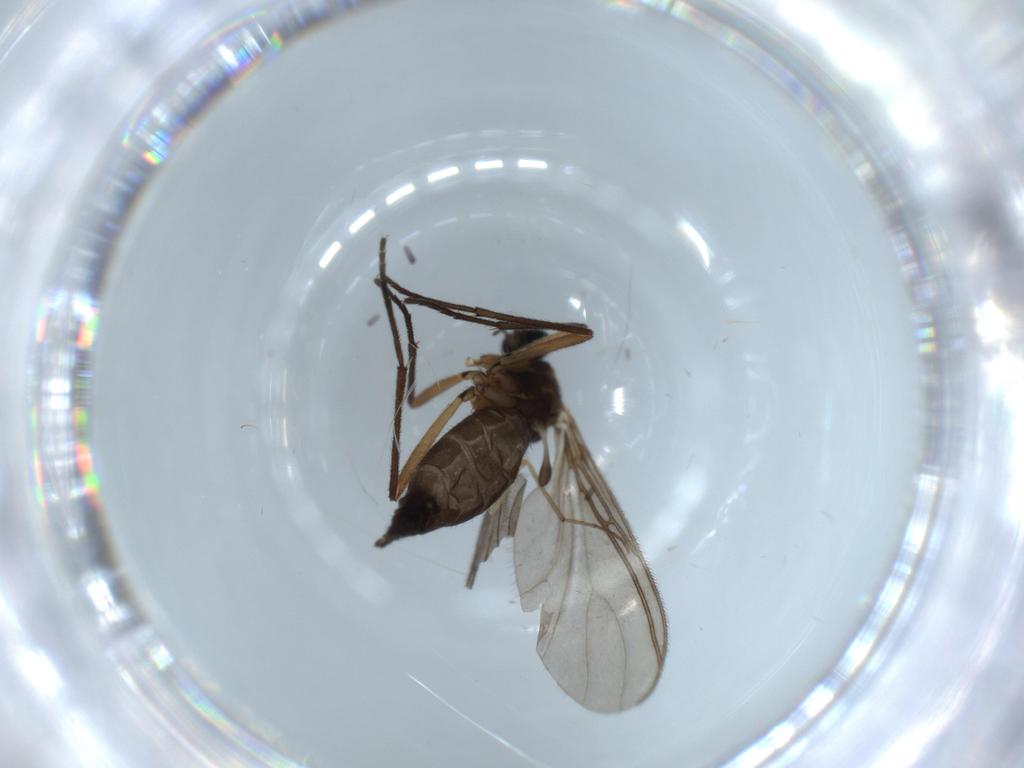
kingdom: Animalia
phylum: Arthropoda
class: Insecta
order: Diptera
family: Chironomidae
